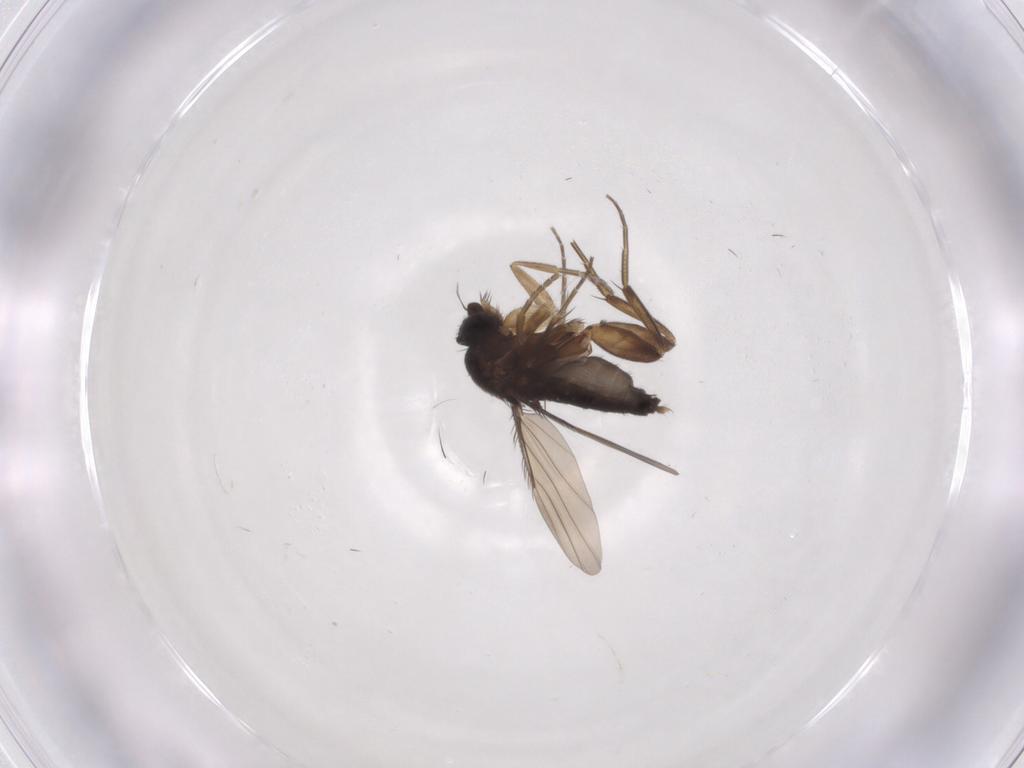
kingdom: Animalia
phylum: Arthropoda
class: Insecta
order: Diptera
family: Phoridae
